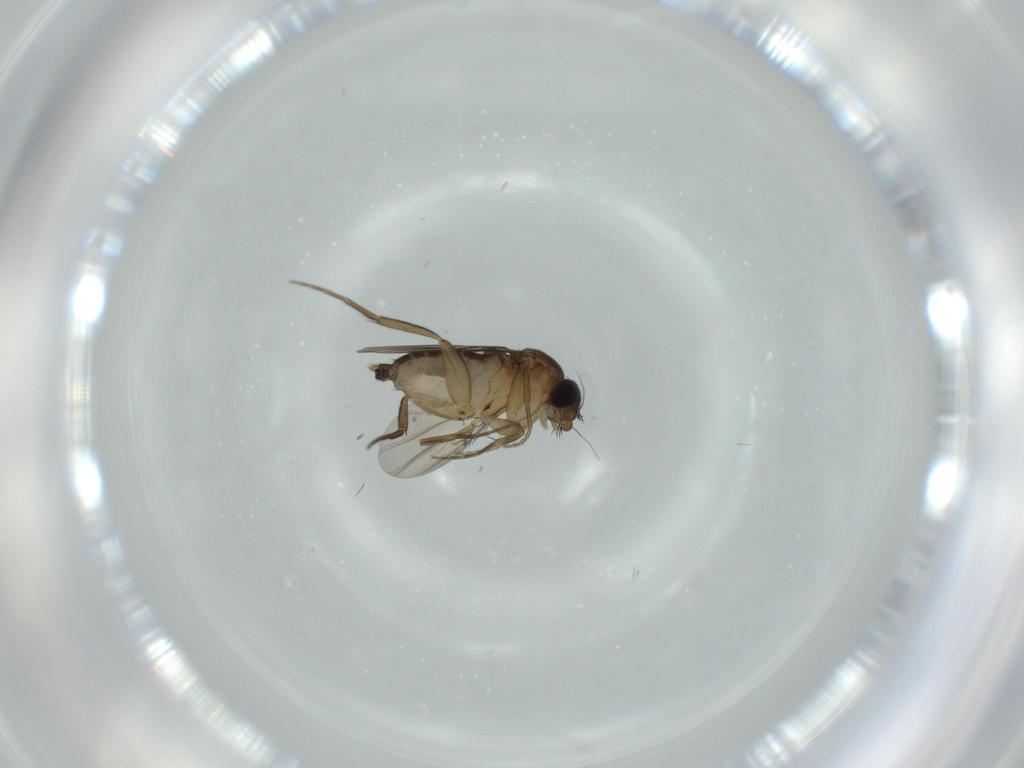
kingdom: Animalia
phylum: Arthropoda
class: Insecta
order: Diptera
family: Phoridae
